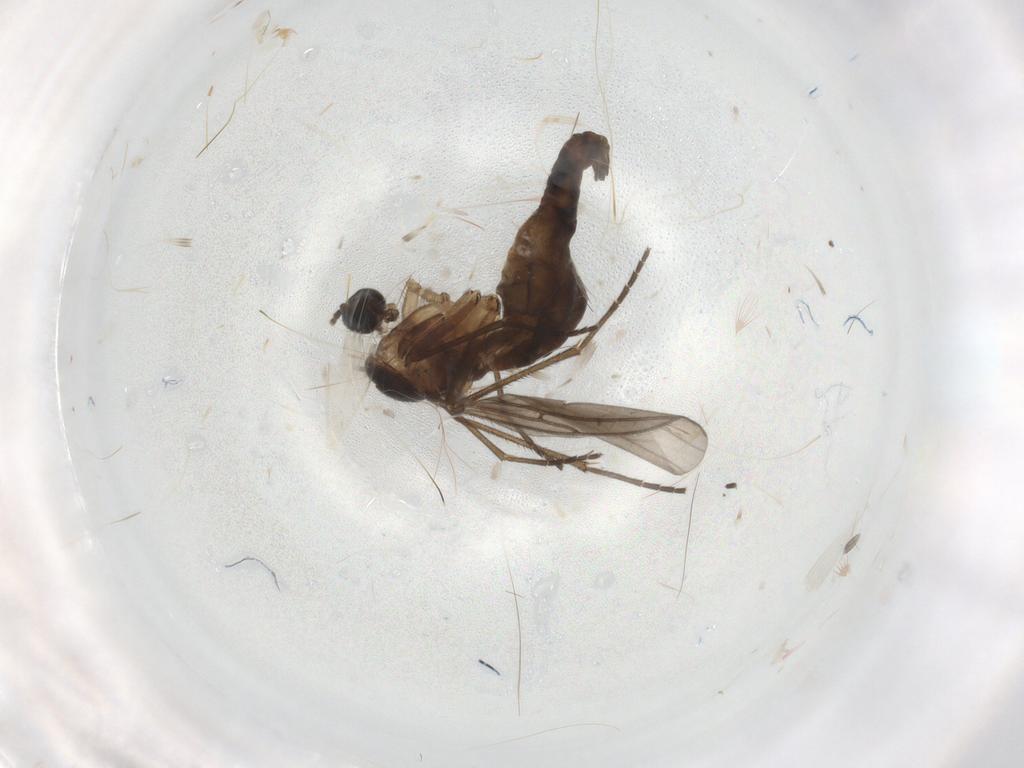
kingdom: Animalia
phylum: Arthropoda
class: Insecta
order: Diptera
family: Sciaridae
